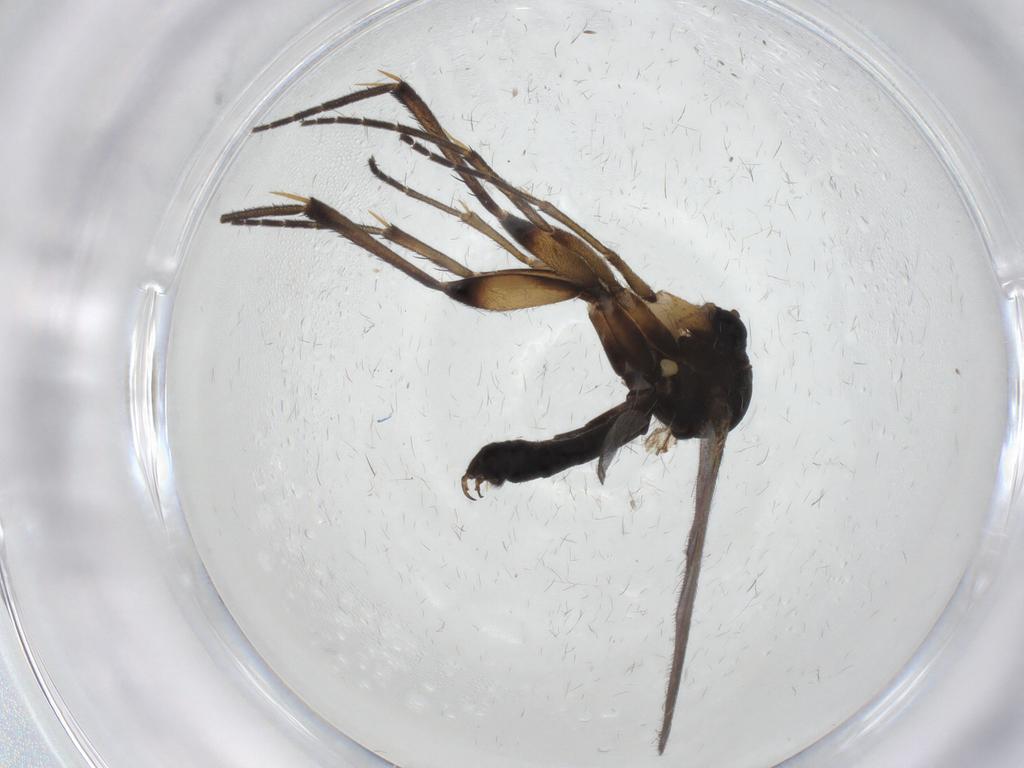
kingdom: Animalia
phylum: Arthropoda
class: Insecta
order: Diptera
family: Mycetophilidae
